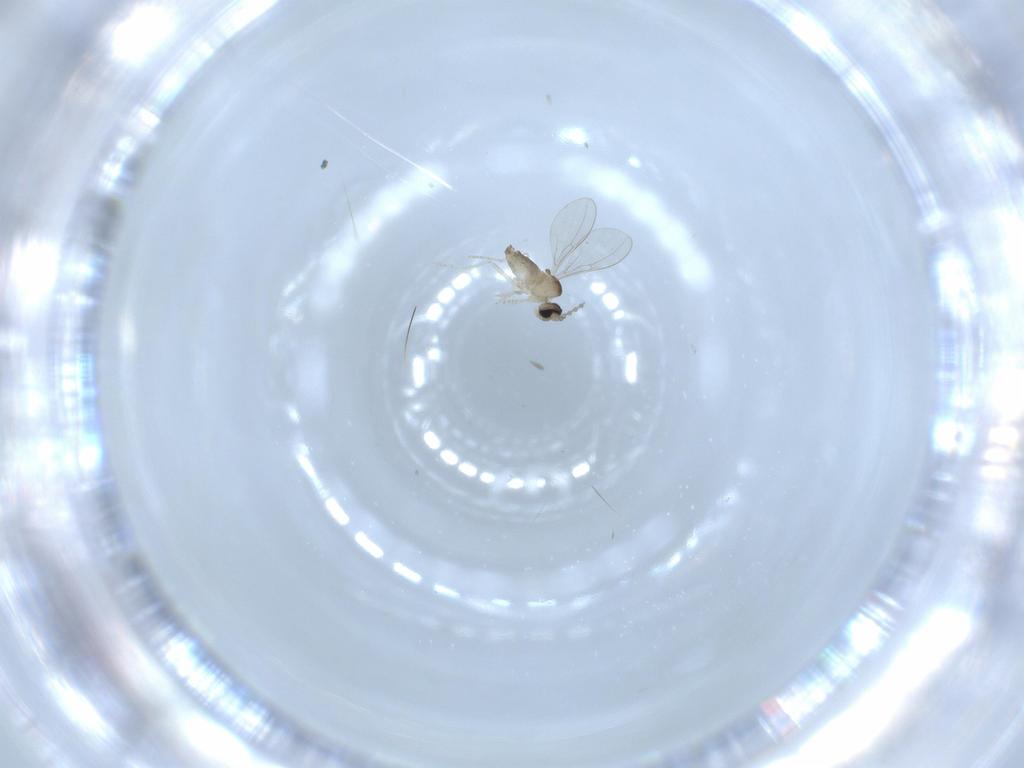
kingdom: Animalia
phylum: Arthropoda
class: Insecta
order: Diptera
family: Cecidomyiidae
